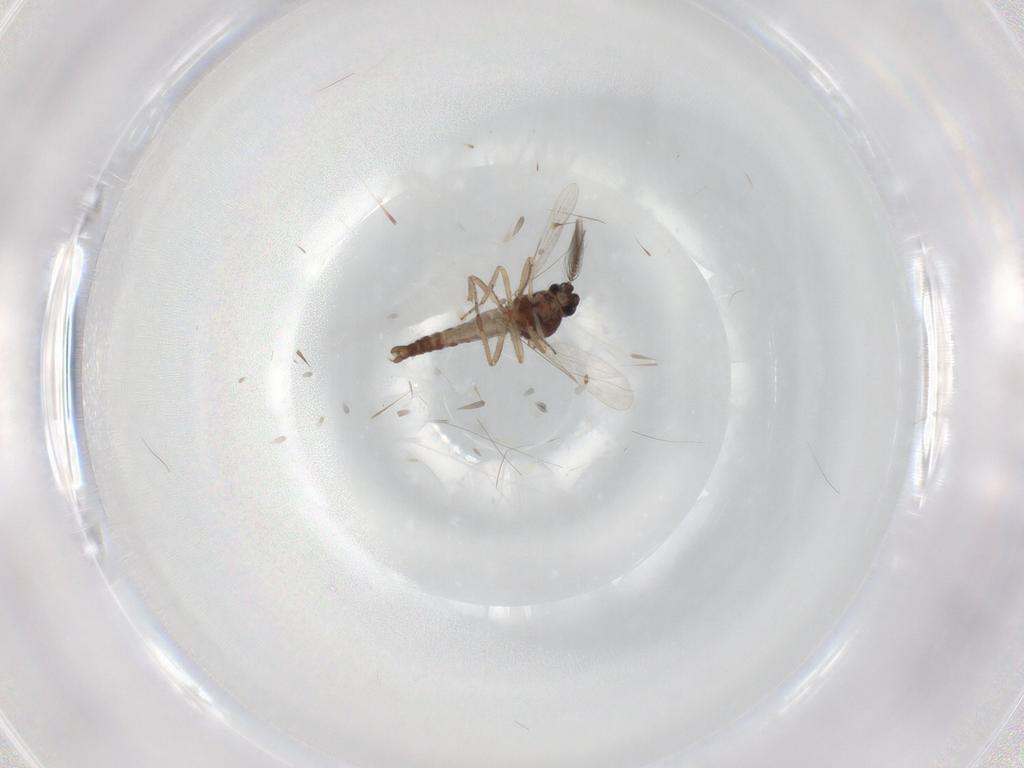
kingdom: Animalia
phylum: Arthropoda
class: Insecta
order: Diptera
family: Ceratopogonidae
